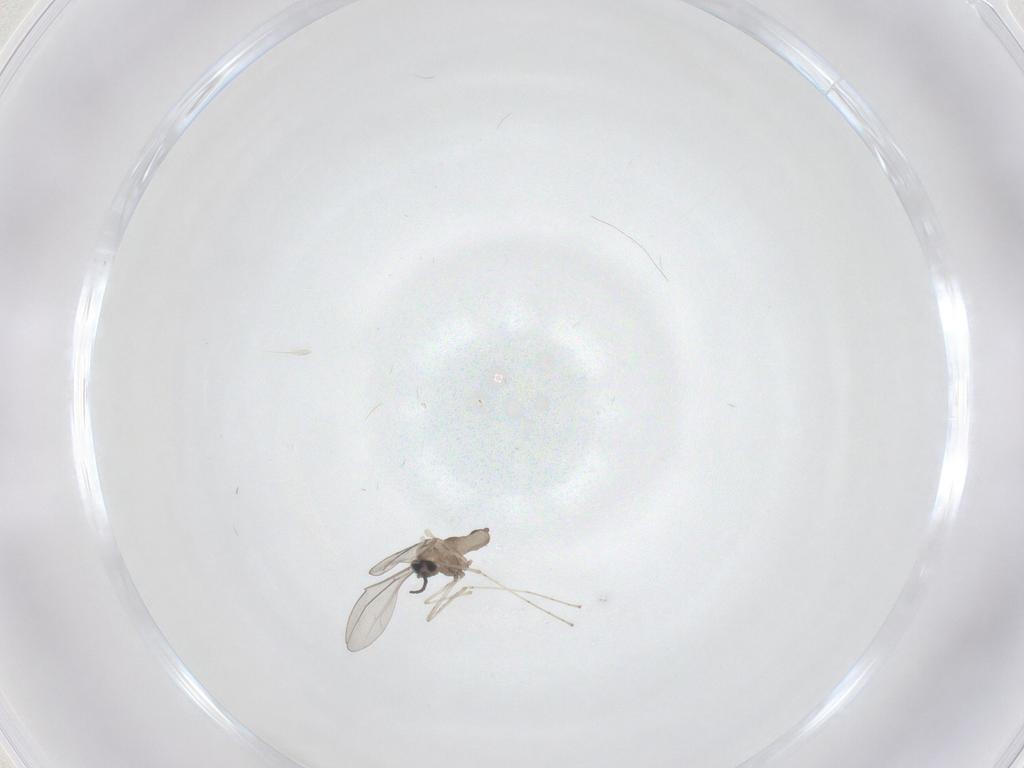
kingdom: Animalia
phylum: Arthropoda
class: Insecta
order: Diptera
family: Cecidomyiidae
